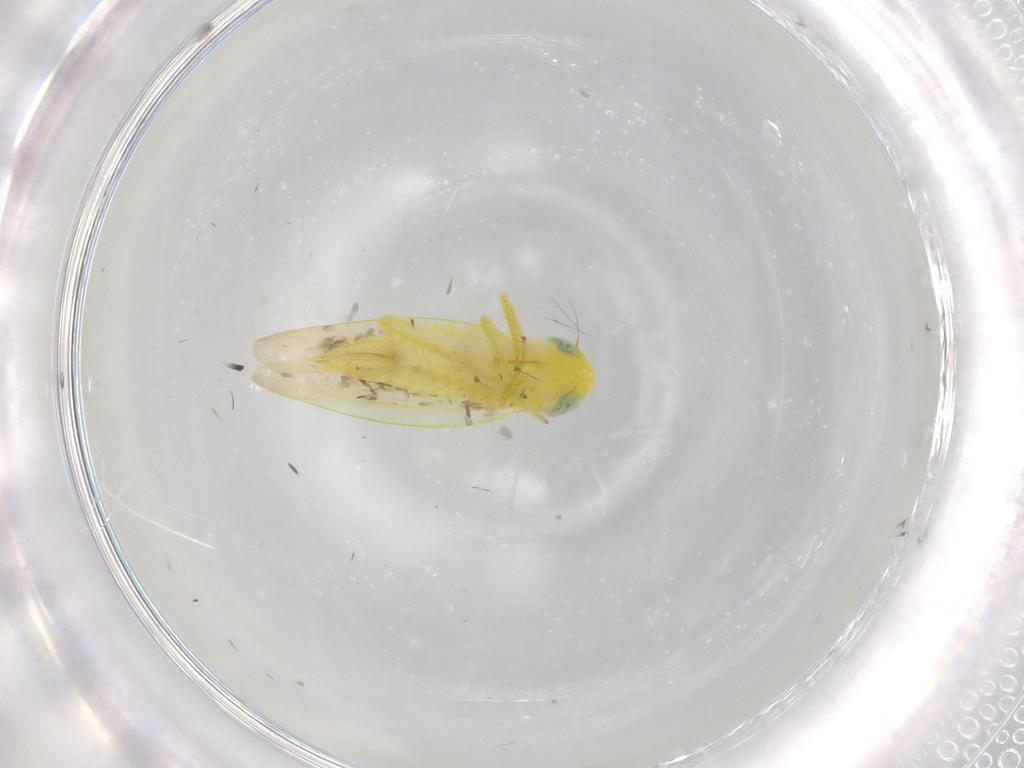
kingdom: Animalia
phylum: Arthropoda
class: Insecta
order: Hemiptera
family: Cicadellidae
